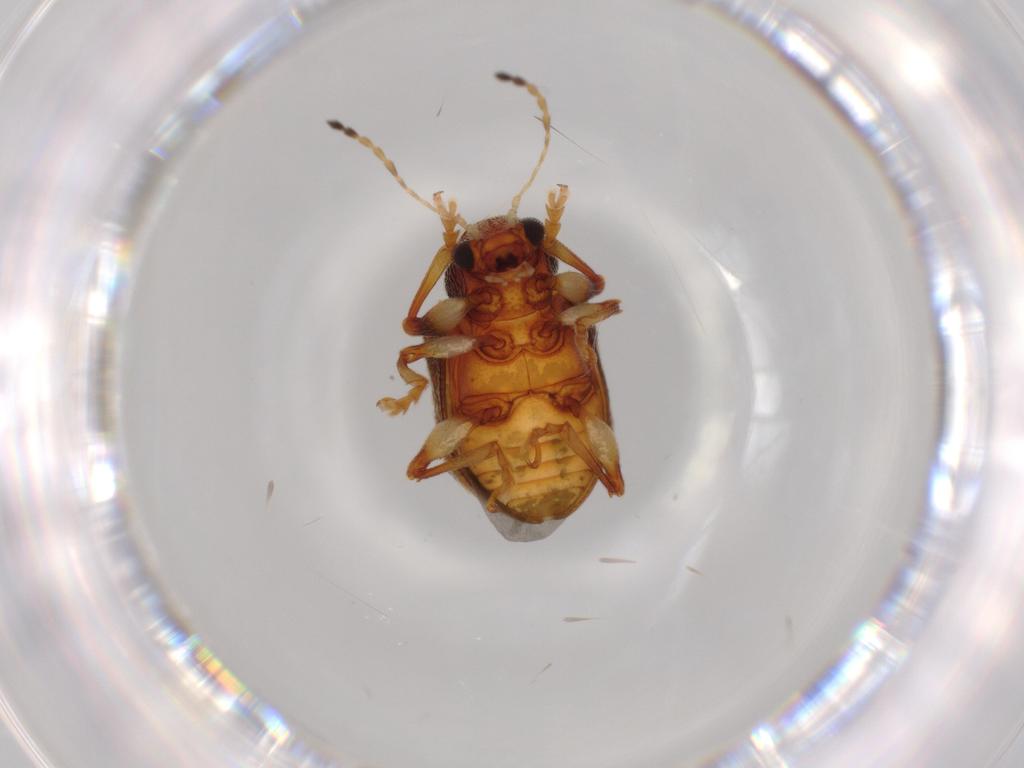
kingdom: Animalia
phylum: Arthropoda
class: Insecta
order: Coleoptera
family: Chrysomelidae
